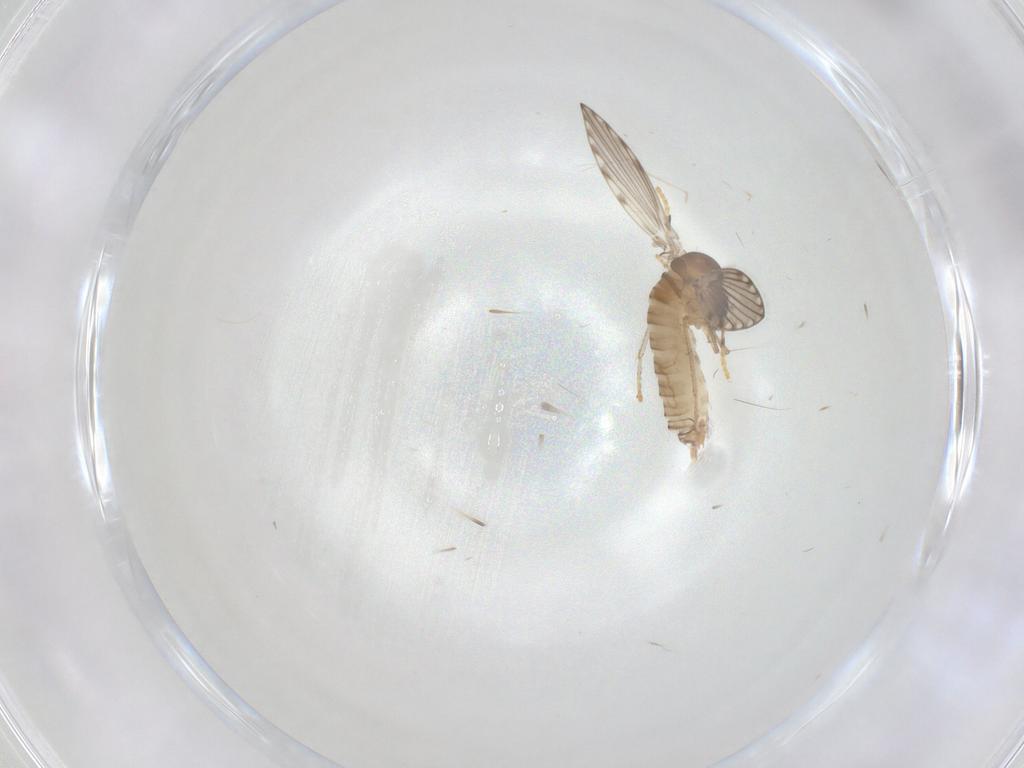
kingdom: Animalia
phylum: Arthropoda
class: Insecta
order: Diptera
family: Psychodidae
